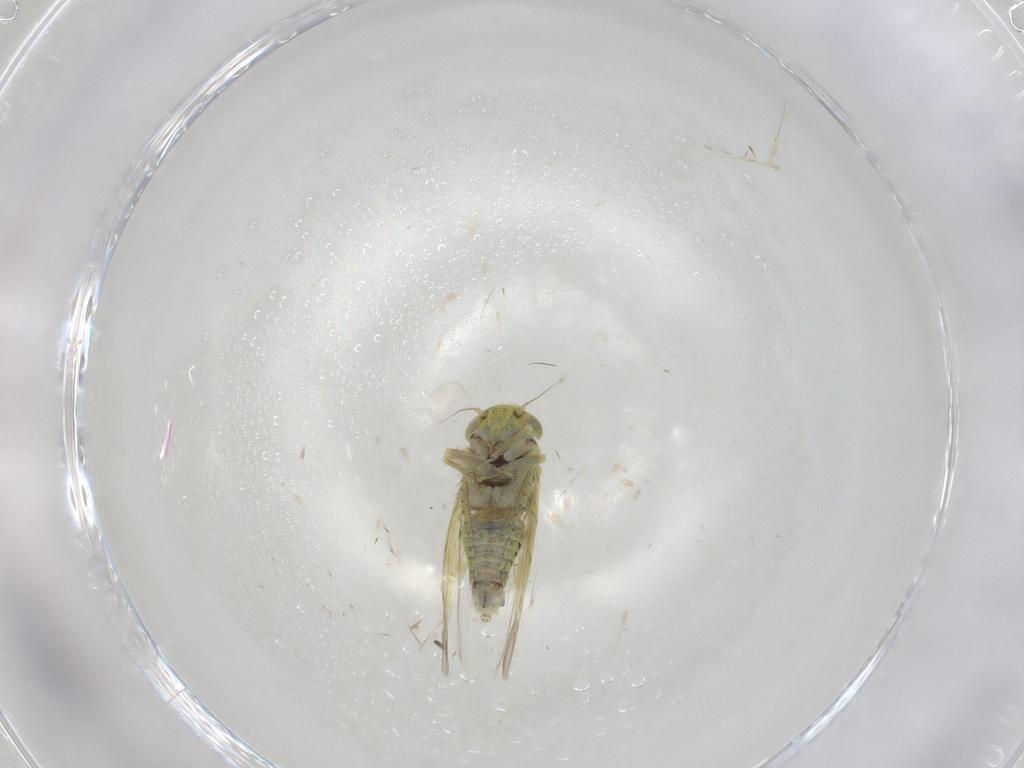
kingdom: Animalia
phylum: Arthropoda
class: Insecta
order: Hemiptera
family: Cicadellidae
